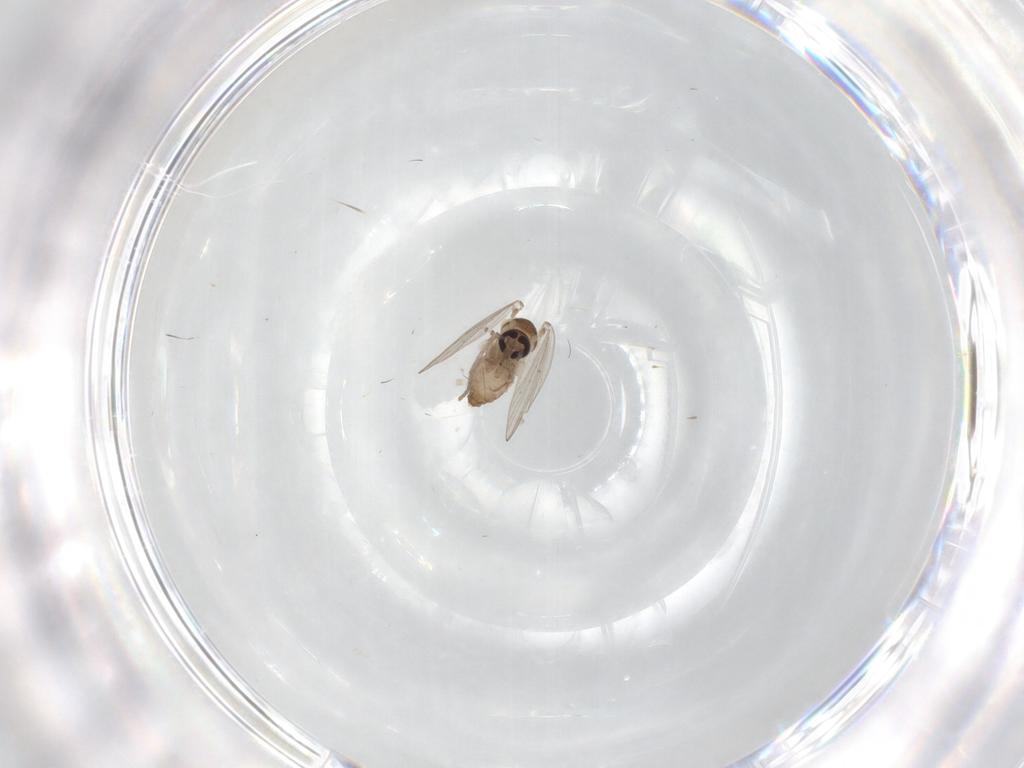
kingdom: Animalia
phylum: Arthropoda
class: Insecta
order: Diptera
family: Psychodidae
